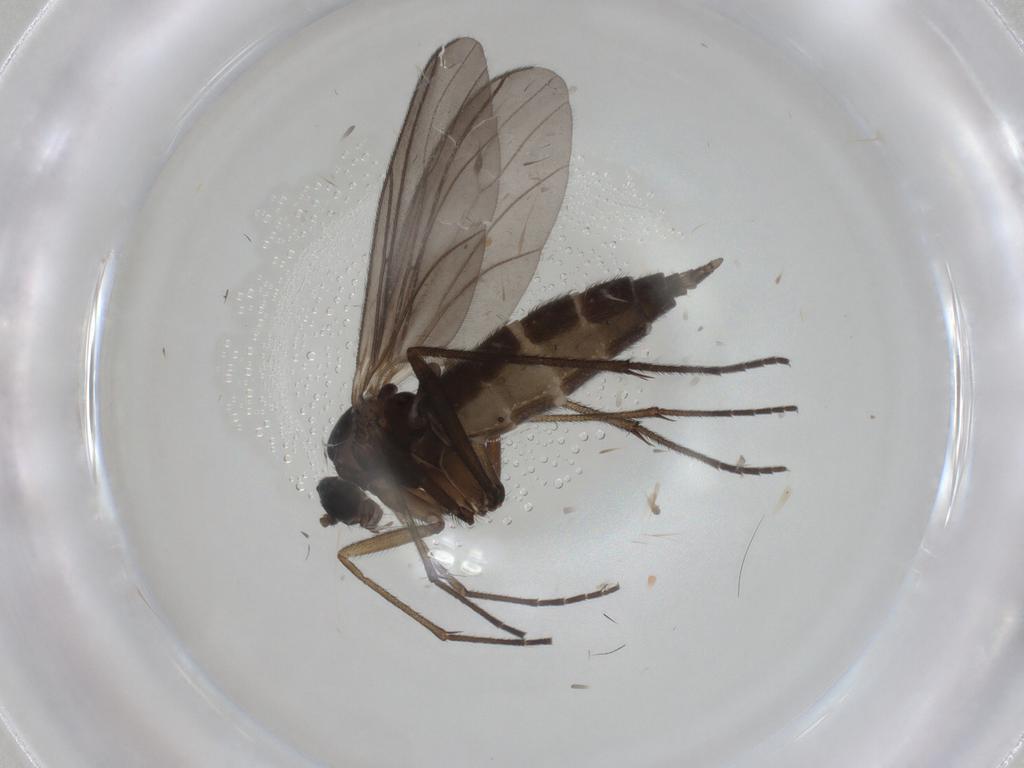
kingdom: Animalia
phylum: Arthropoda
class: Insecta
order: Diptera
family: Sciaridae
